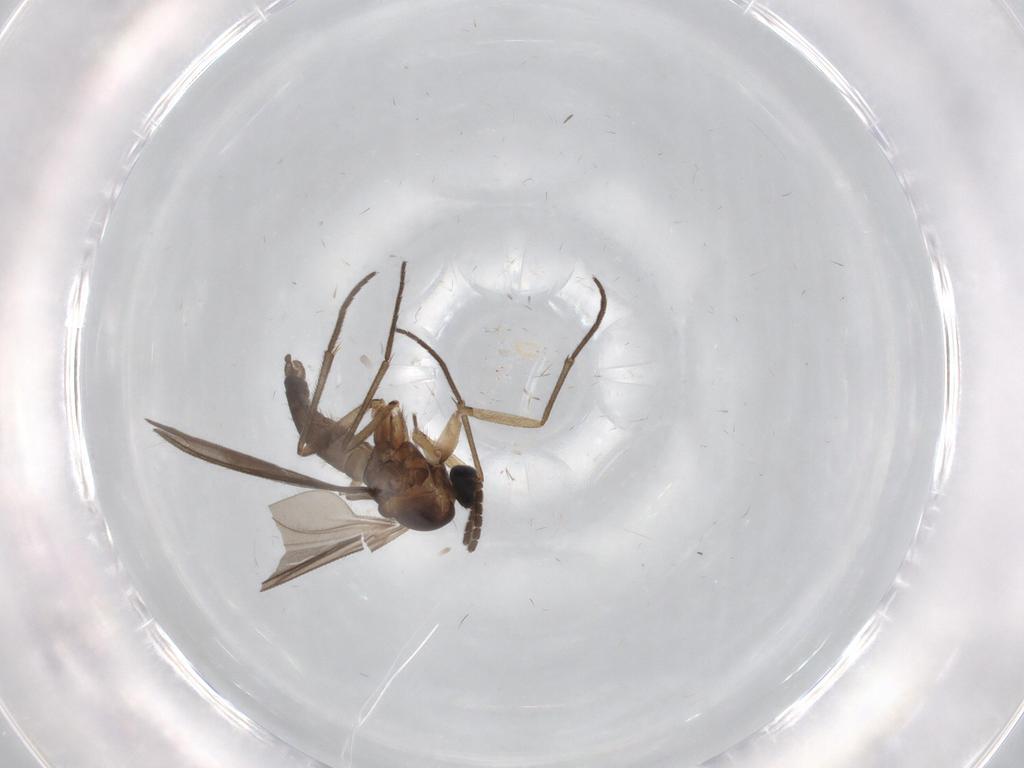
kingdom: Animalia
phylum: Arthropoda
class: Insecta
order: Diptera
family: Sciaridae
